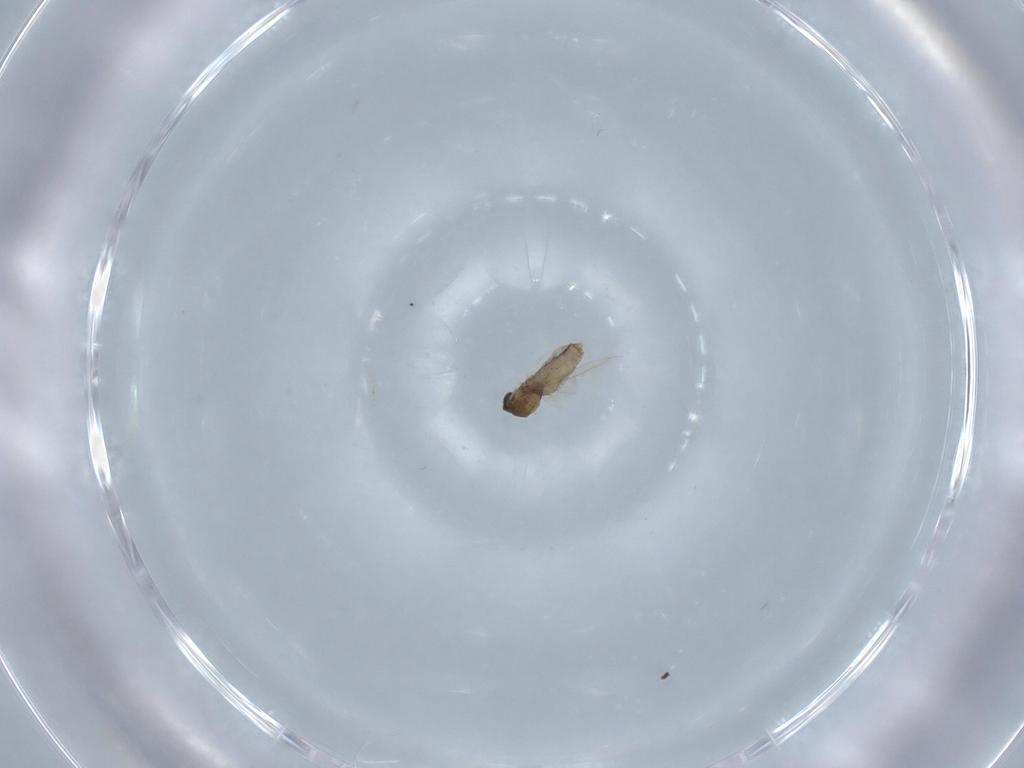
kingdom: Animalia
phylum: Arthropoda
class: Insecta
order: Diptera
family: Cecidomyiidae
